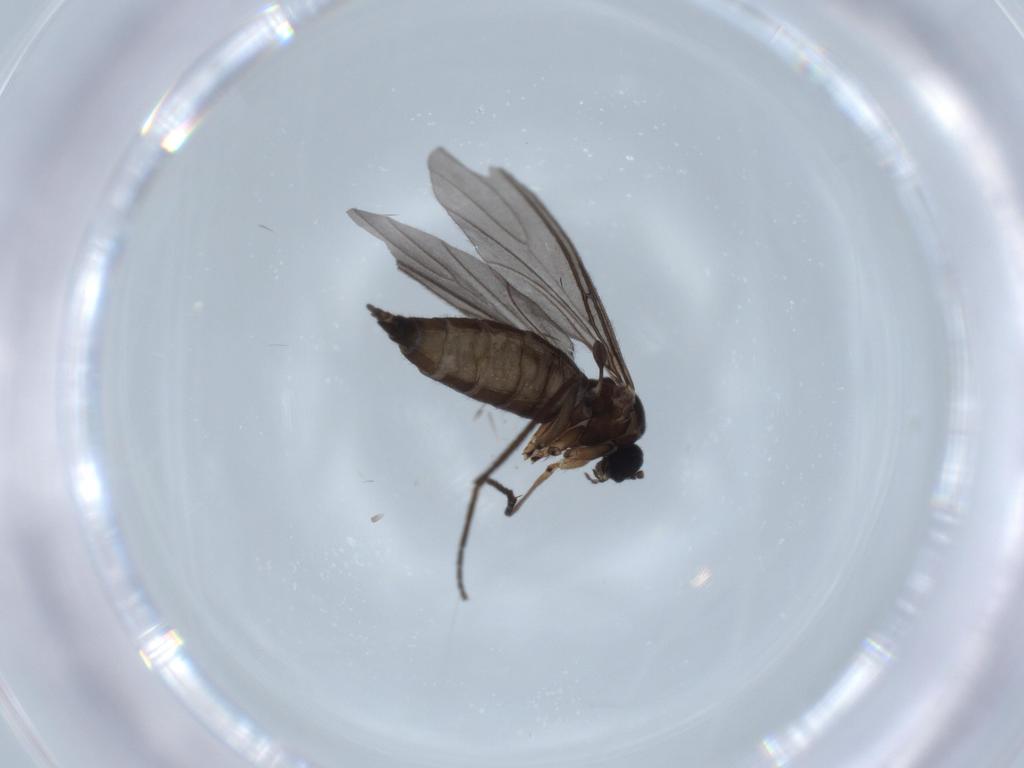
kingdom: Animalia
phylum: Arthropoda
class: Insecta
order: Diptera
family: Sciaridae
